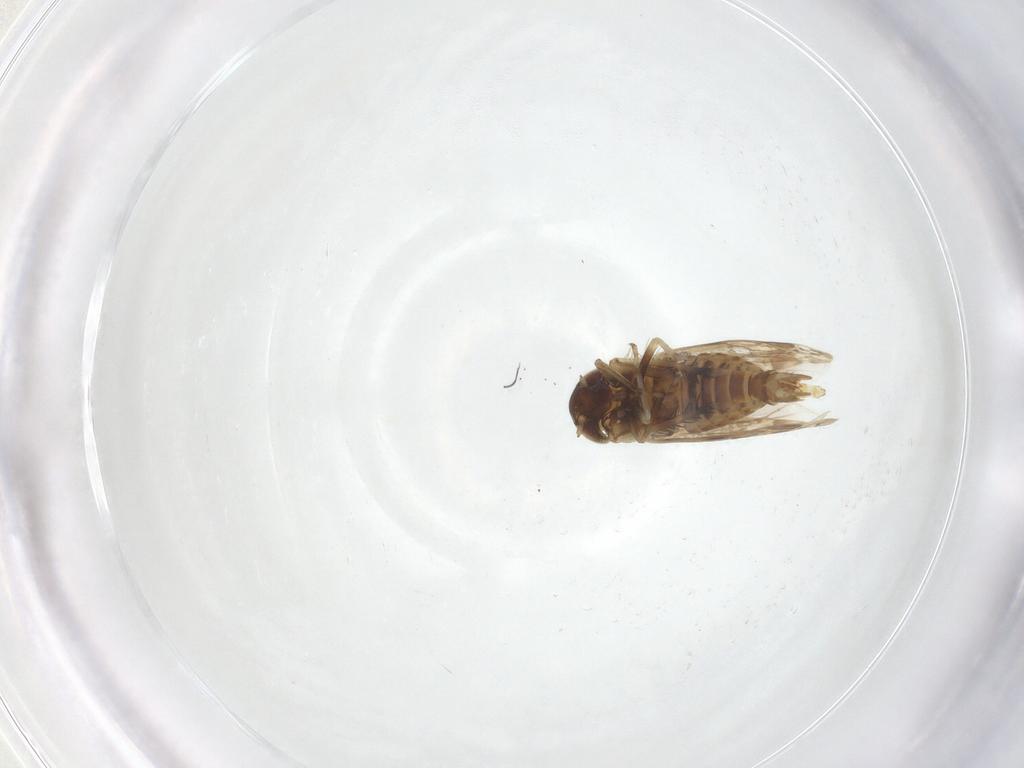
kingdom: Animalia
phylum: Arthropoda
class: Insecta
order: Hemiptera
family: Cicadellidae
